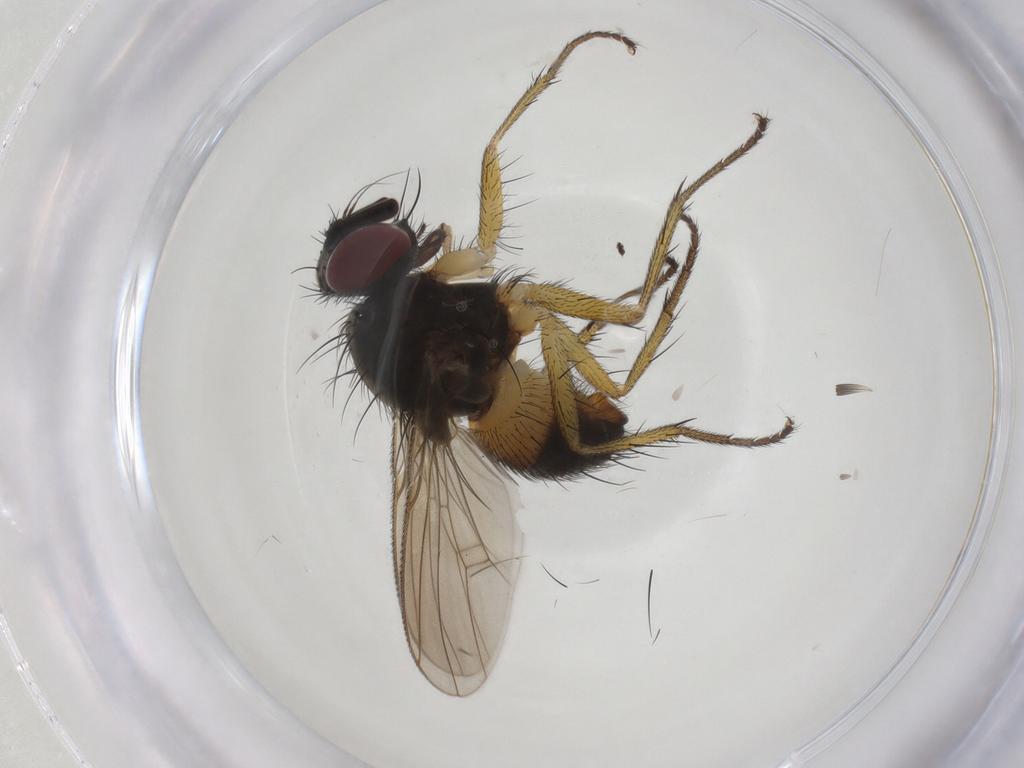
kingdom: Animalia
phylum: Arthropoda
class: Insecta
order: Diptera
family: Muscidae
